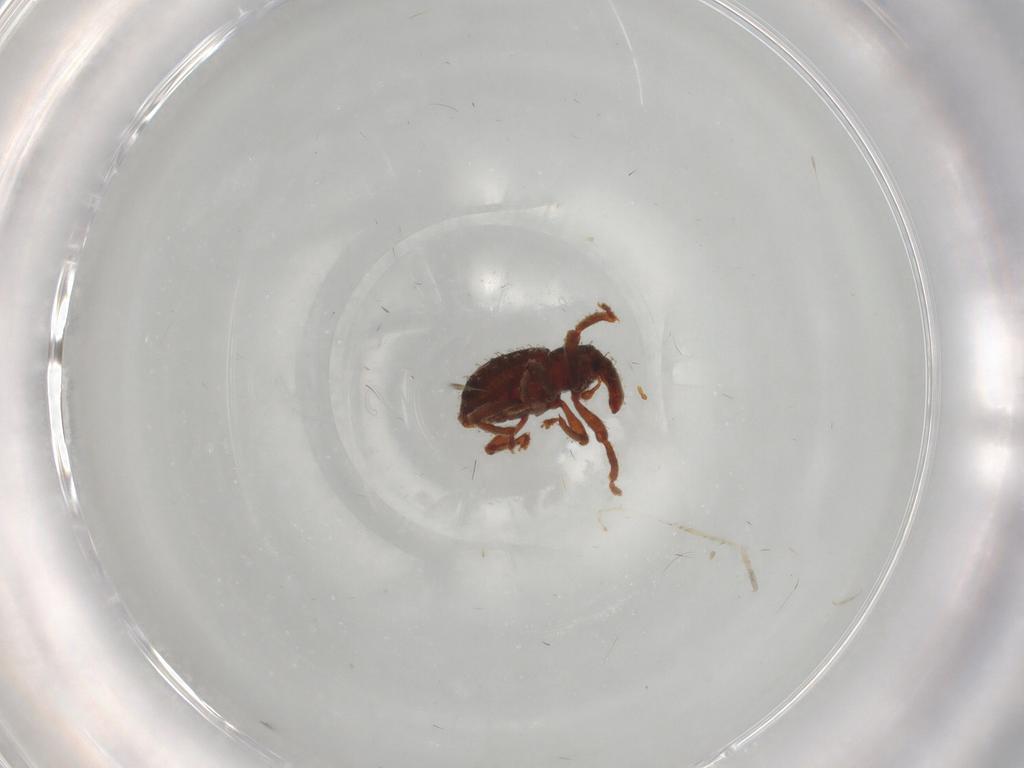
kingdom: Animalia
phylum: Arthropoda
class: Insecta
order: Coleoptera
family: Curculionidae
